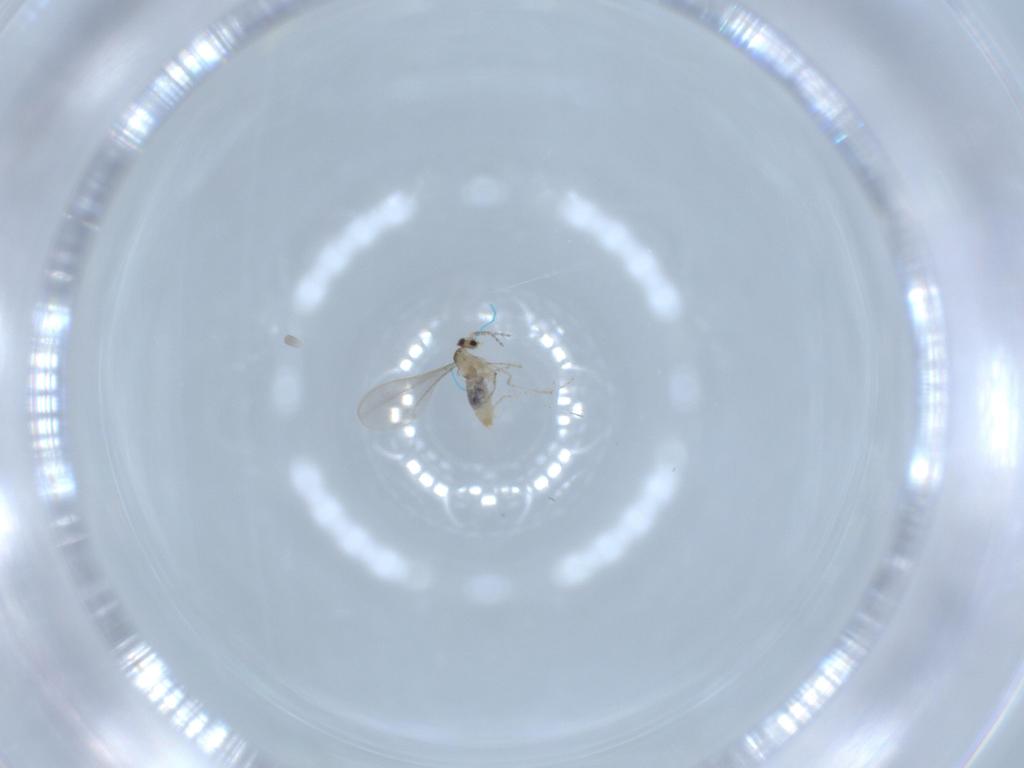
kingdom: Animalia
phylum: Arthropoda
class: Insecta
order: Diptera
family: Cecidomyiidae
